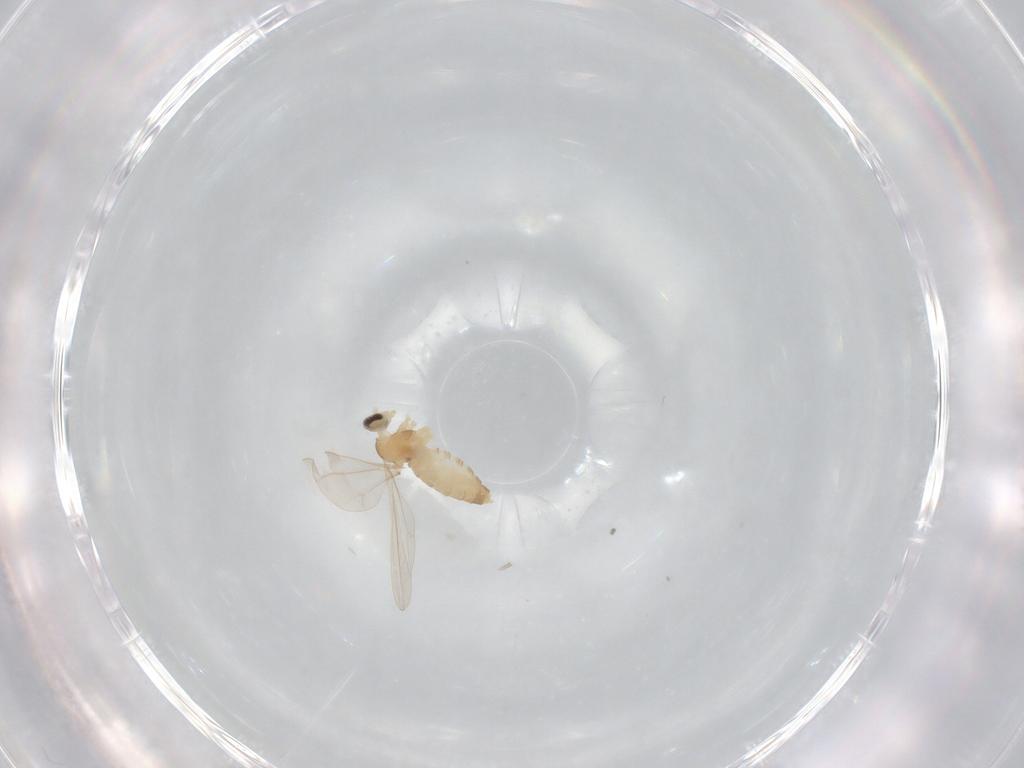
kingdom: Animalia
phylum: Arthropoda
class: Insecta
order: Diptera
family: Cecidomyiidae
